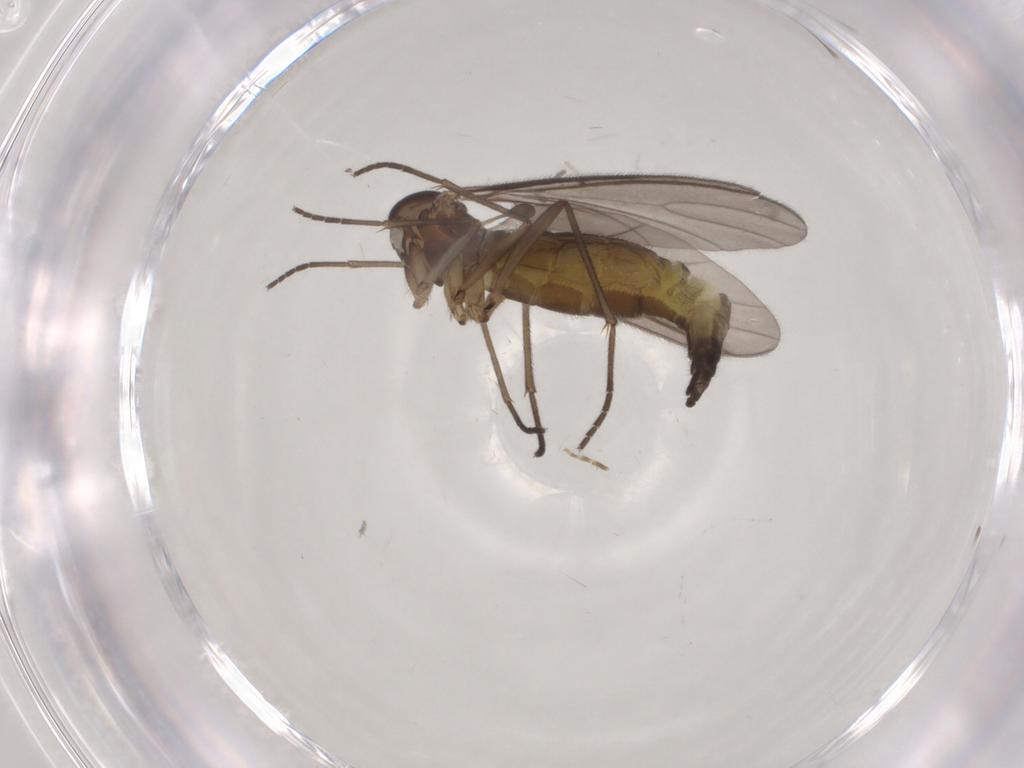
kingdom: Animalia
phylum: Arthropoda
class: Insecta
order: Diptera
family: Sciaridae
